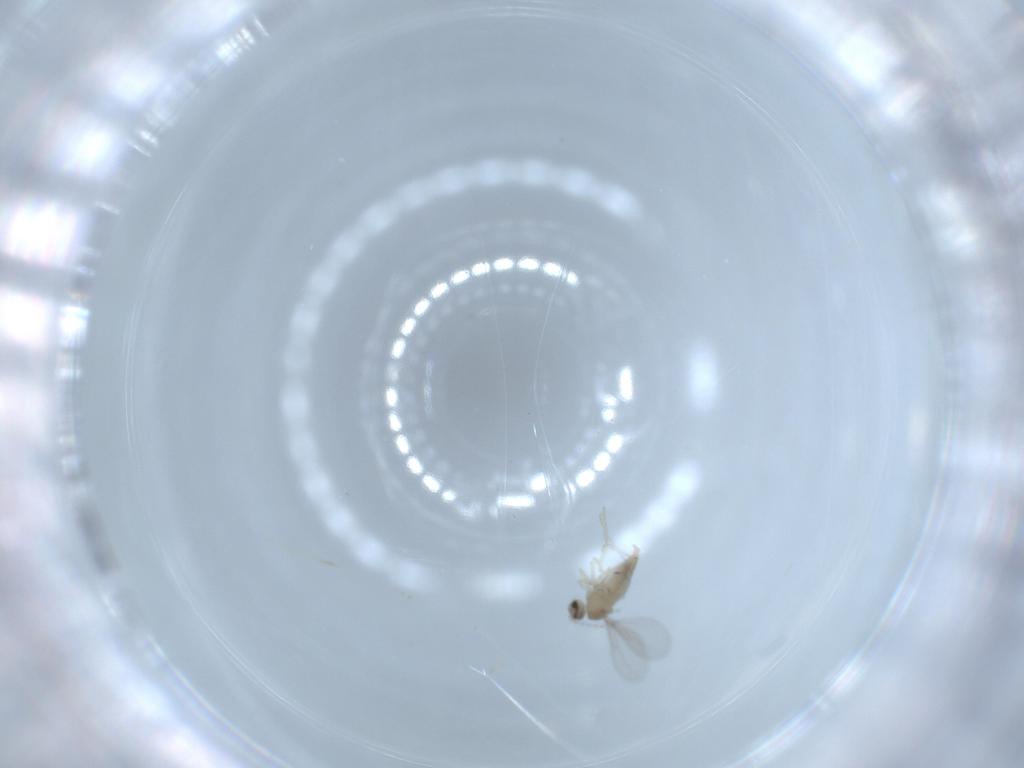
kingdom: Animalia
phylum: Arthropoda
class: Insecta
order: Diptera
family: Cecidomyiidae
